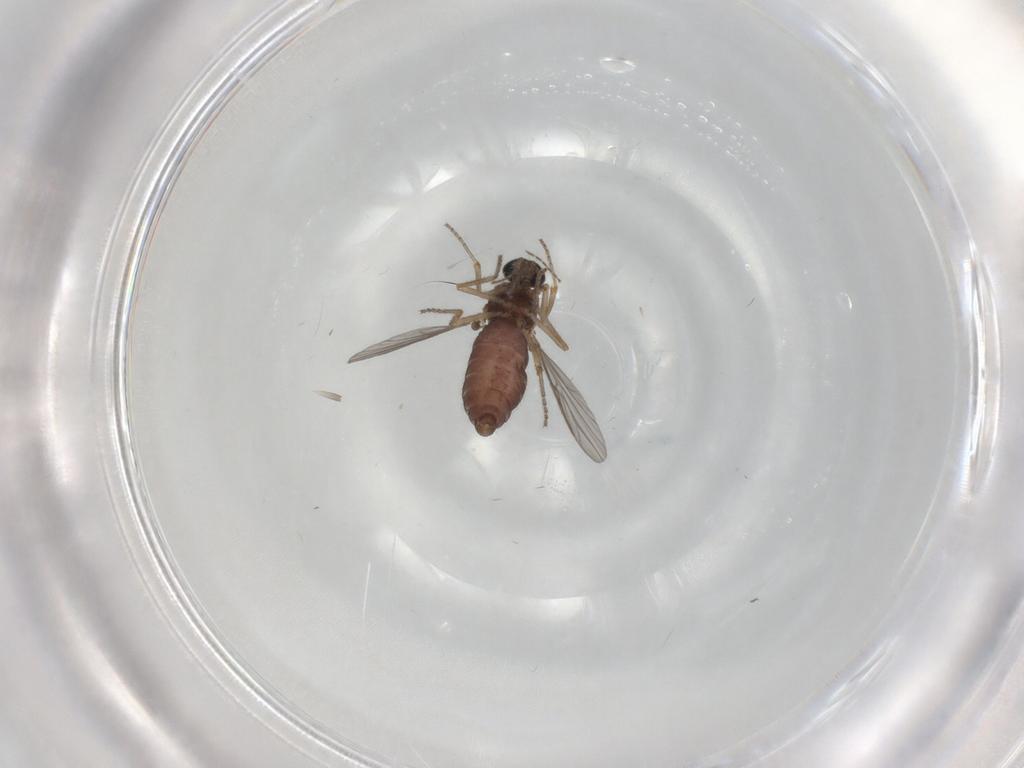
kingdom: Animalia
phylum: Arthropoda
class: Insecta
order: Diptera
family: Ceratopogonidae
